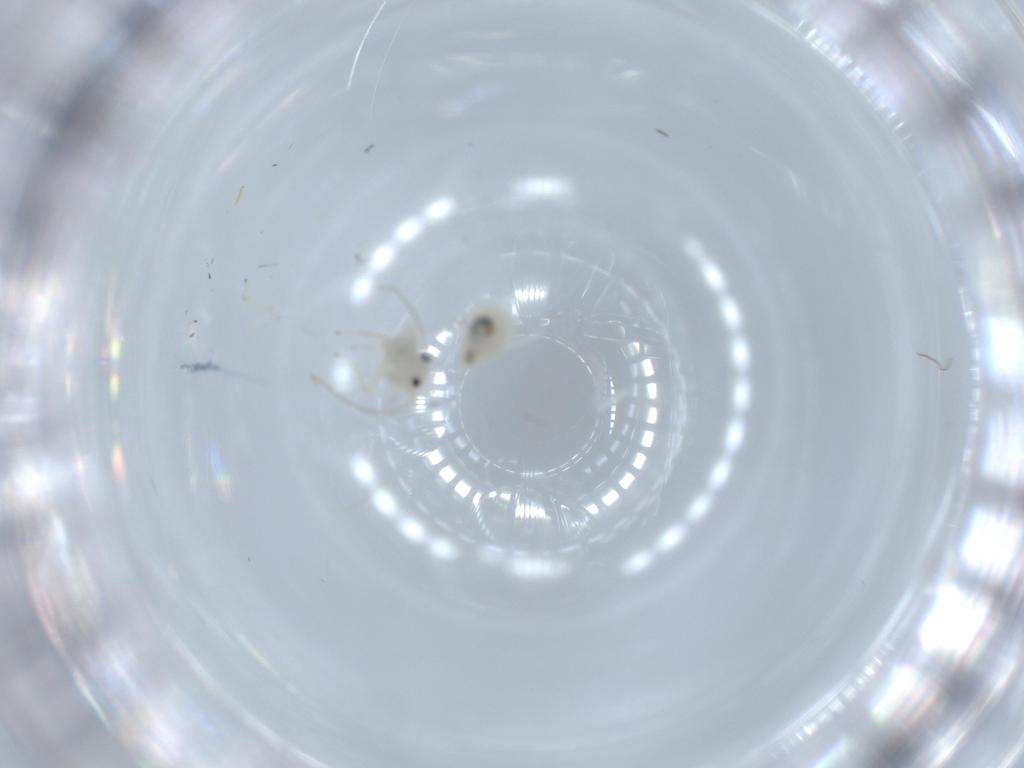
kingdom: Animalia
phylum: Arthropoda
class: Insecta
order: Psocodea
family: Caeciliusidae
